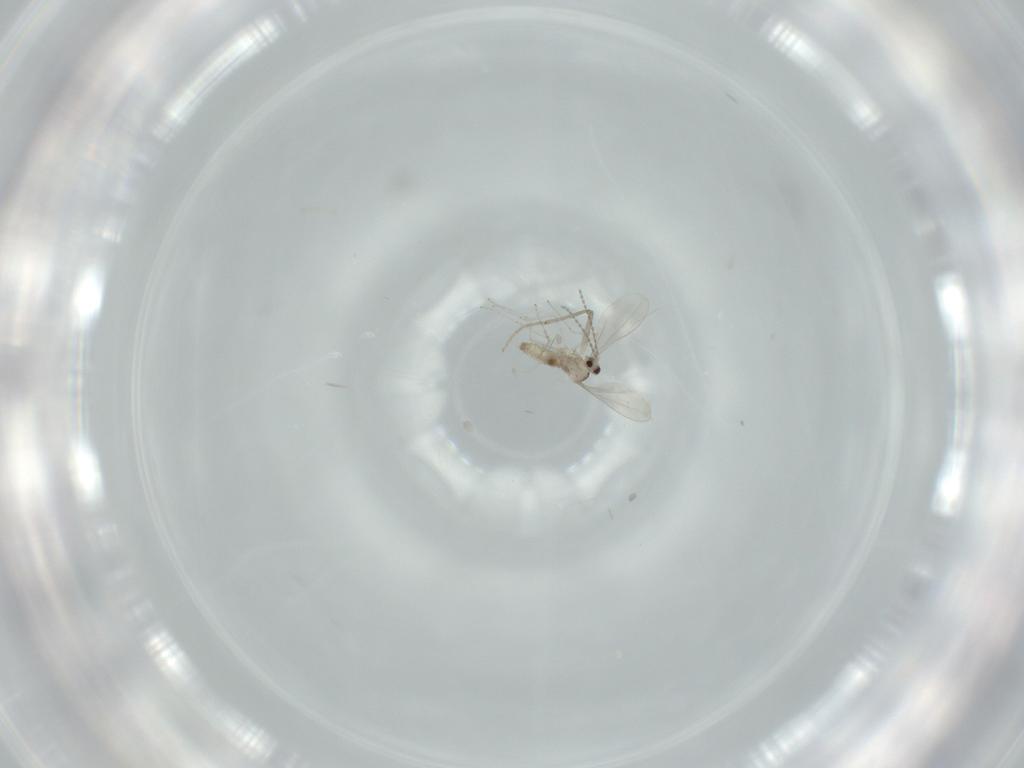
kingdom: Animalia
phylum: Arthropoda
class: Insecta
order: Diptera
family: Cecidomyiidae
